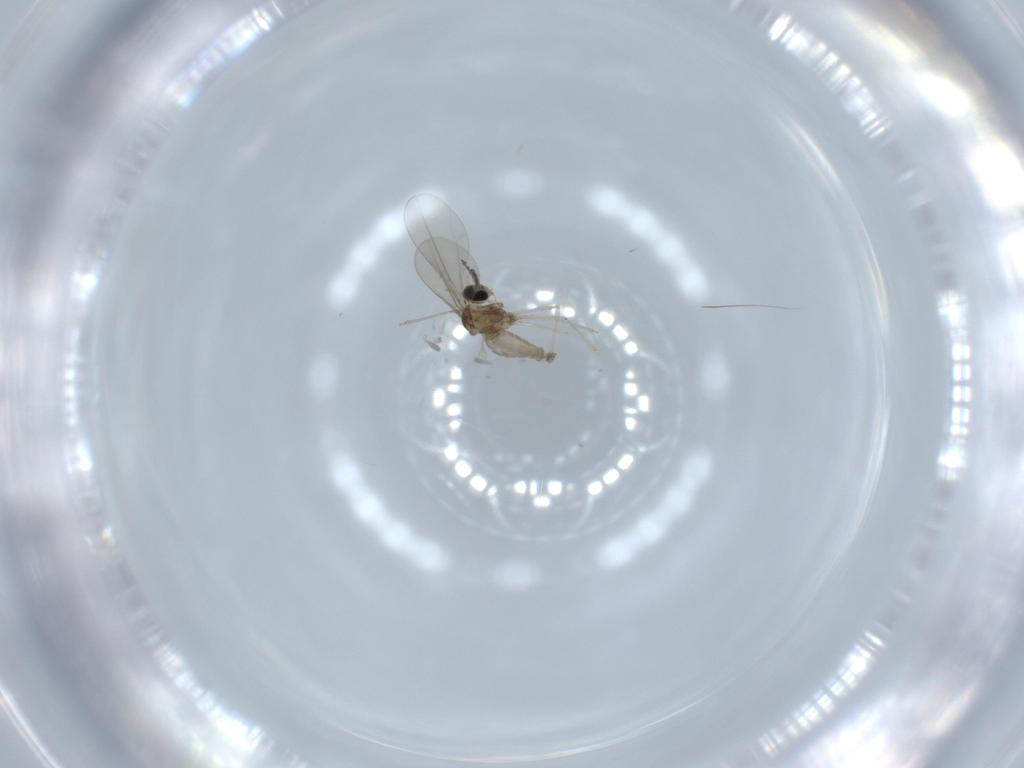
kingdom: Animalia
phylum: Arthropoda
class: Insecta
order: Diptera
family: Cecidomyiidae
